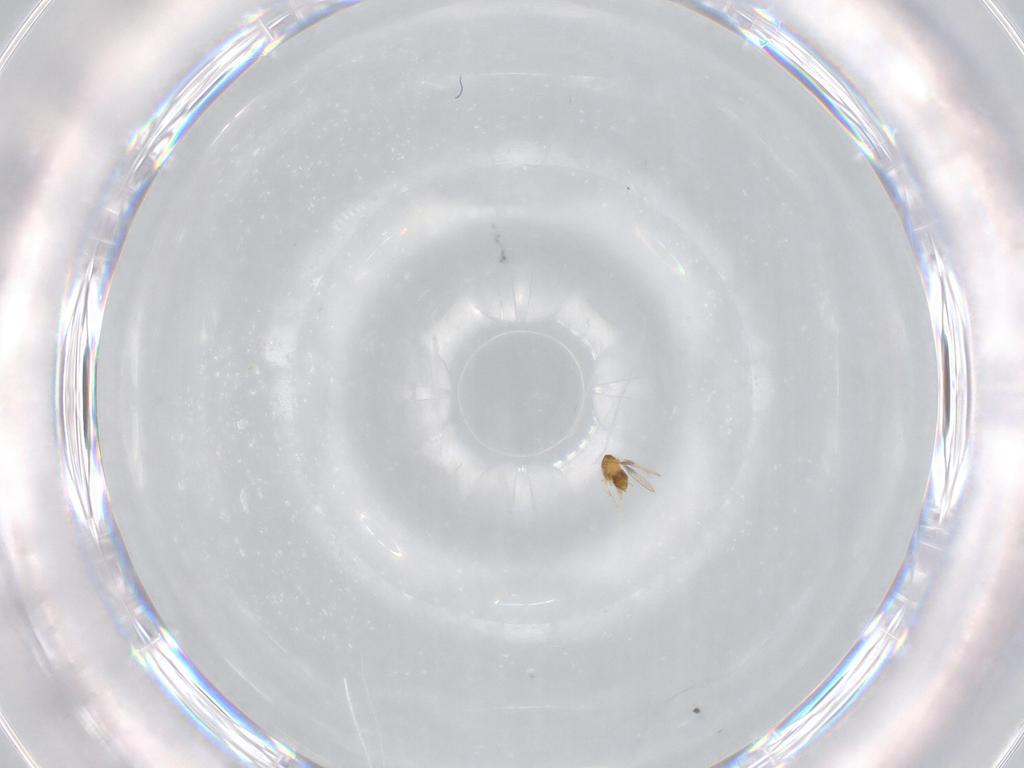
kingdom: Animalia
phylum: Arthropoda
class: Insecta
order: Hymenoptera
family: Trichogrammatidae
